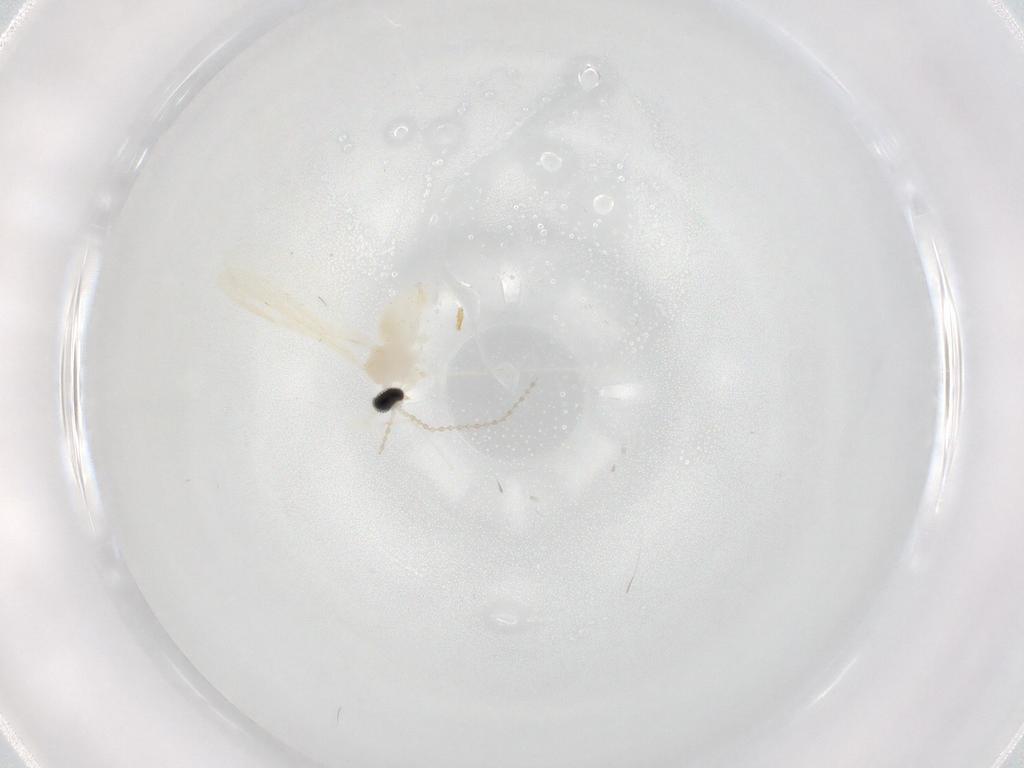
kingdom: Animalia
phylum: Arthropoda
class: Insecta
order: Diptera
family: Cecidomyiidae
